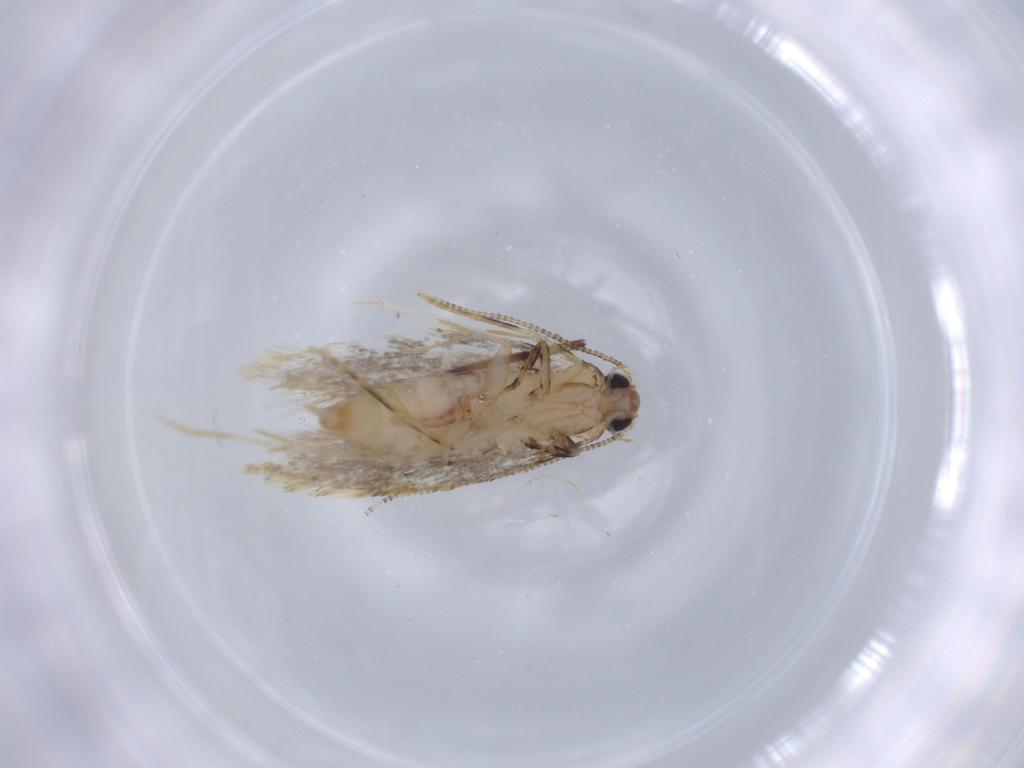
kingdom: Animalia
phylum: Arthropoda
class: Insecta
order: Lepidoptera
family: Tineidae
